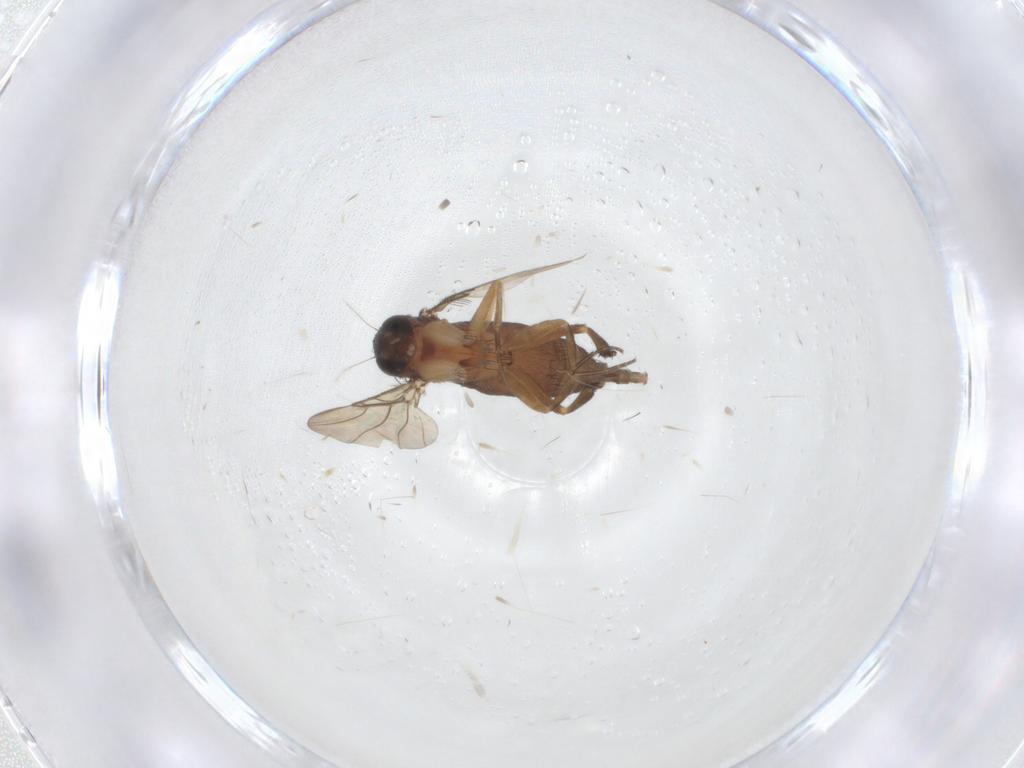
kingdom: Animalia
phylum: Arthropoda
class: Insecta
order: Diptera
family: Phoridae
